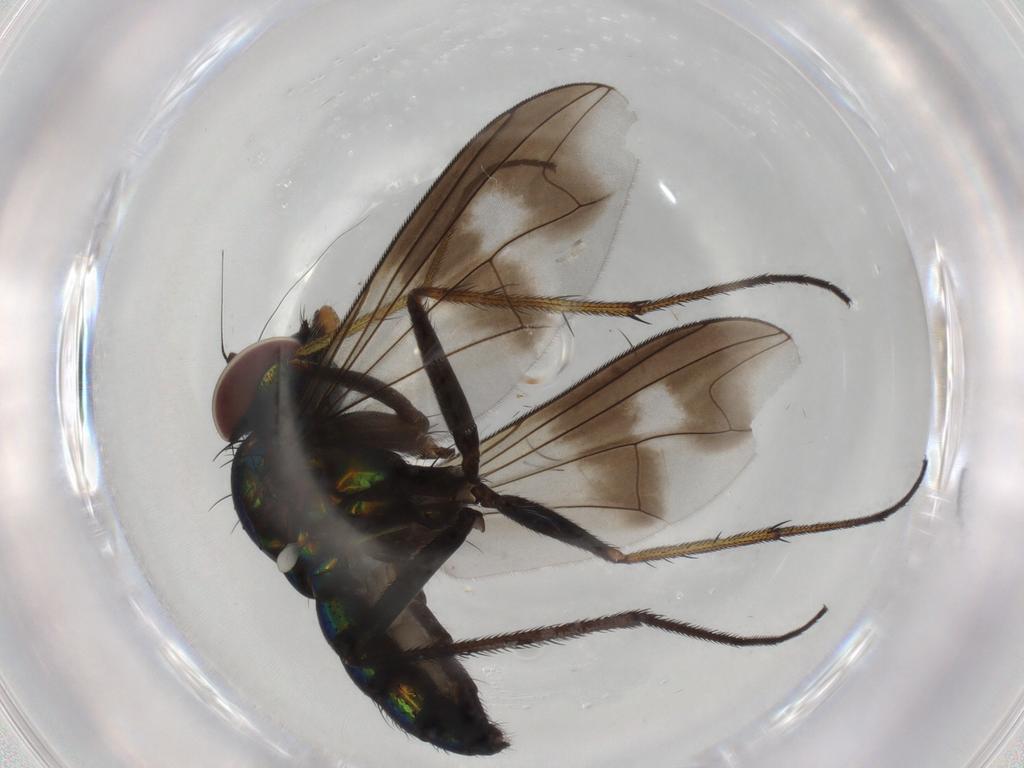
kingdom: Animalia
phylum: Arthropoda
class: Insecta
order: Diptera
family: Dolichopodidae
